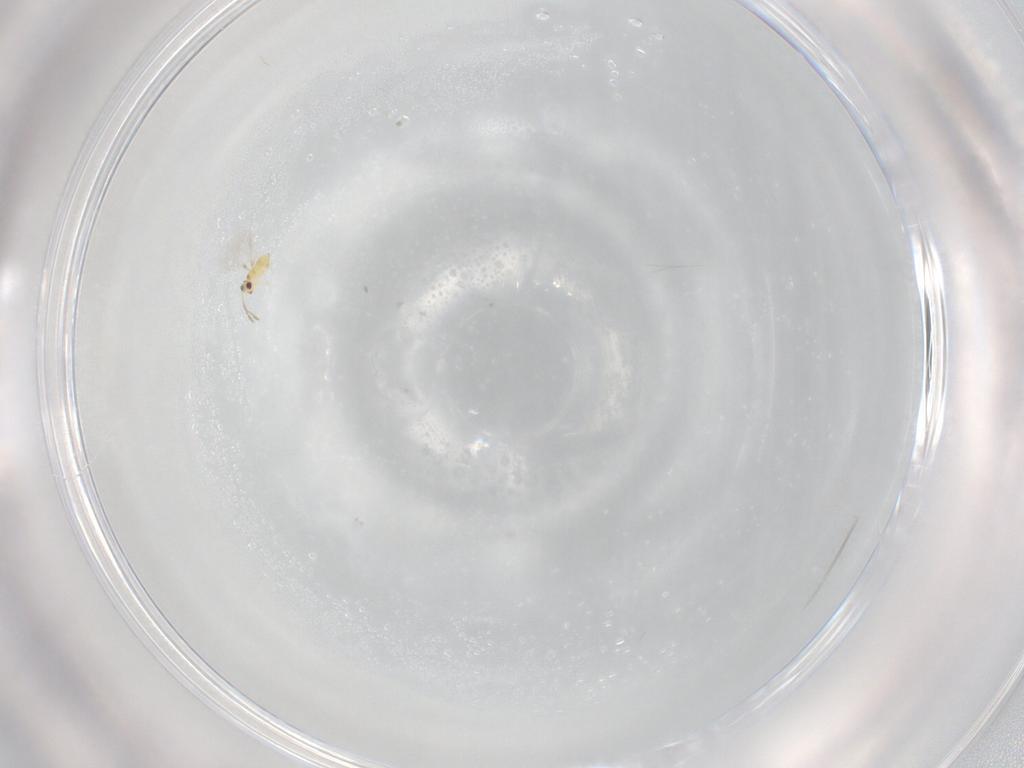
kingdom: Animalia
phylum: Arthropoda
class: Insecta
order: Hymenoptera
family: Mymaridae
